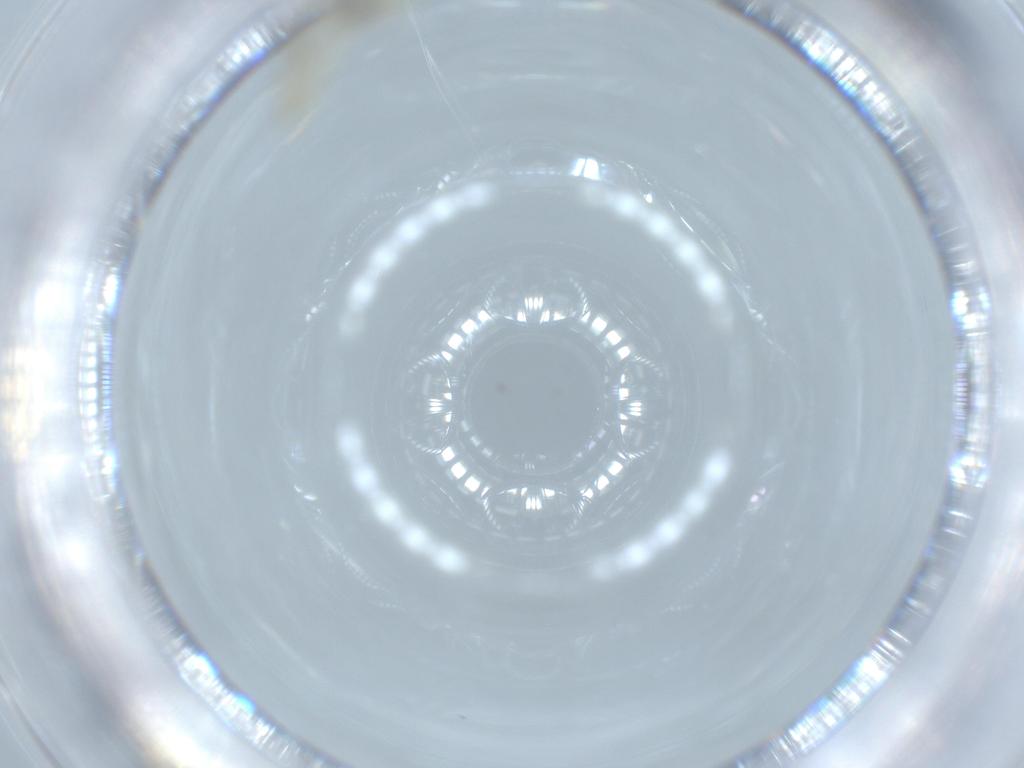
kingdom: Animalia
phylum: Arthropoda
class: Insecta
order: Diptera
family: Chironomidae
